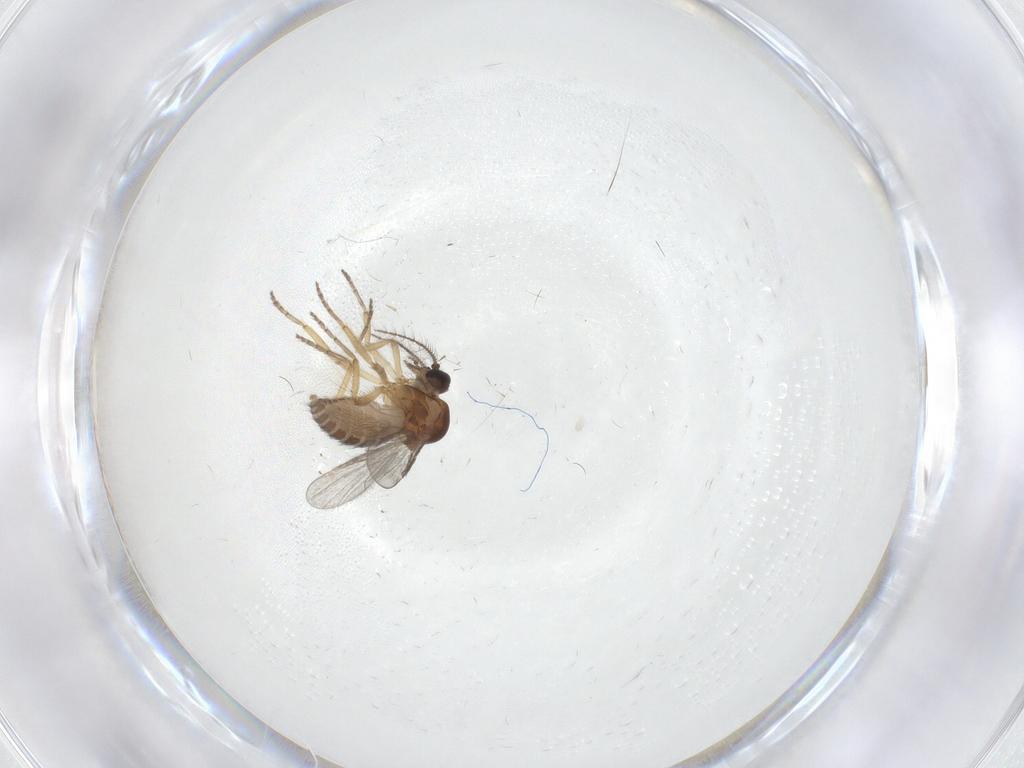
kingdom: Animalia
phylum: Arthropoda
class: Insecta
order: Diptera
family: Ceratopogonidae
